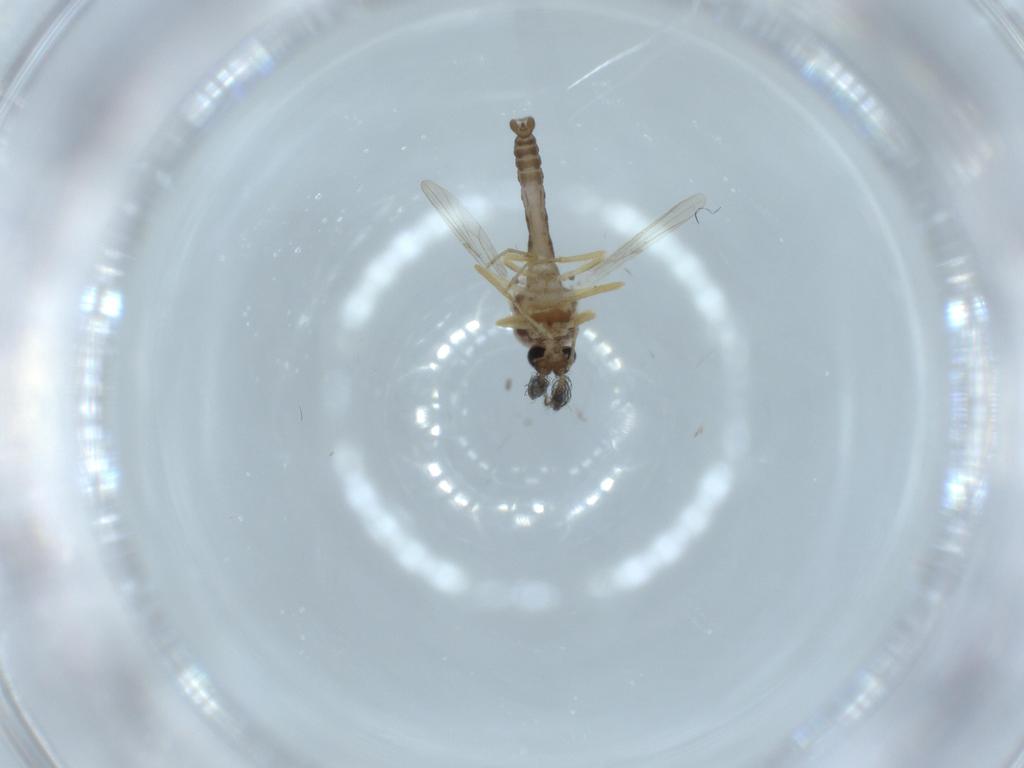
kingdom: Animalia
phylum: Arthropoda
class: Insecta
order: Diptera
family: Ceratopogonidae
